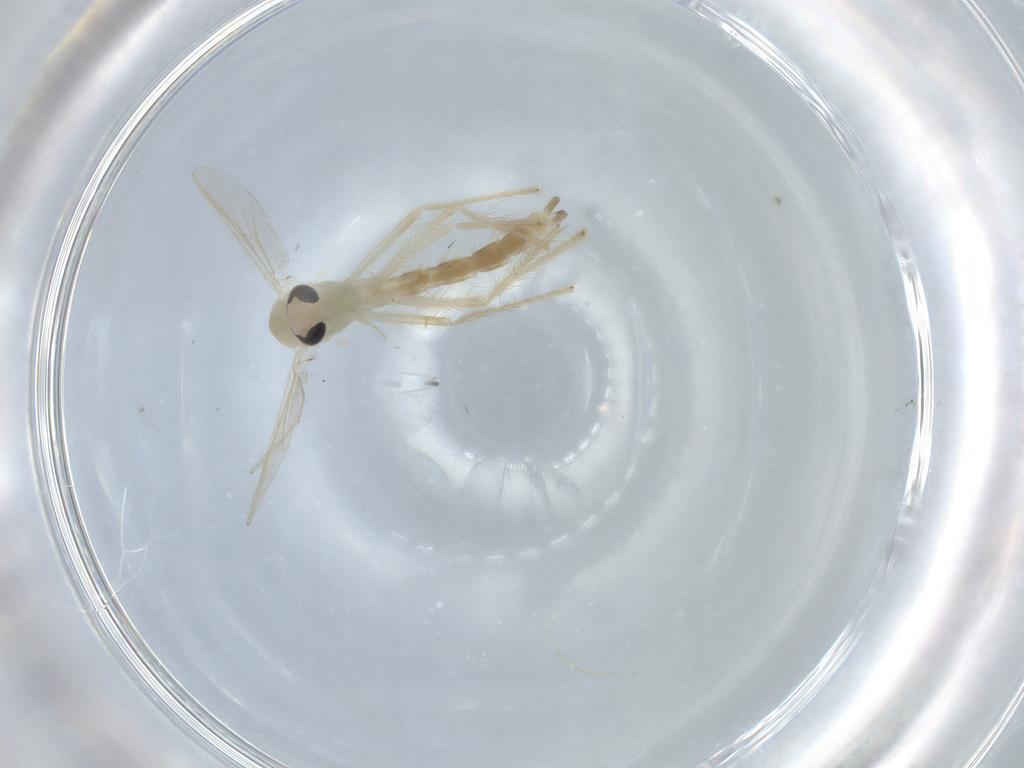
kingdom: Animalia
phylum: Arthropoda
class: Insecta
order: Diptera
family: Chironomidae
